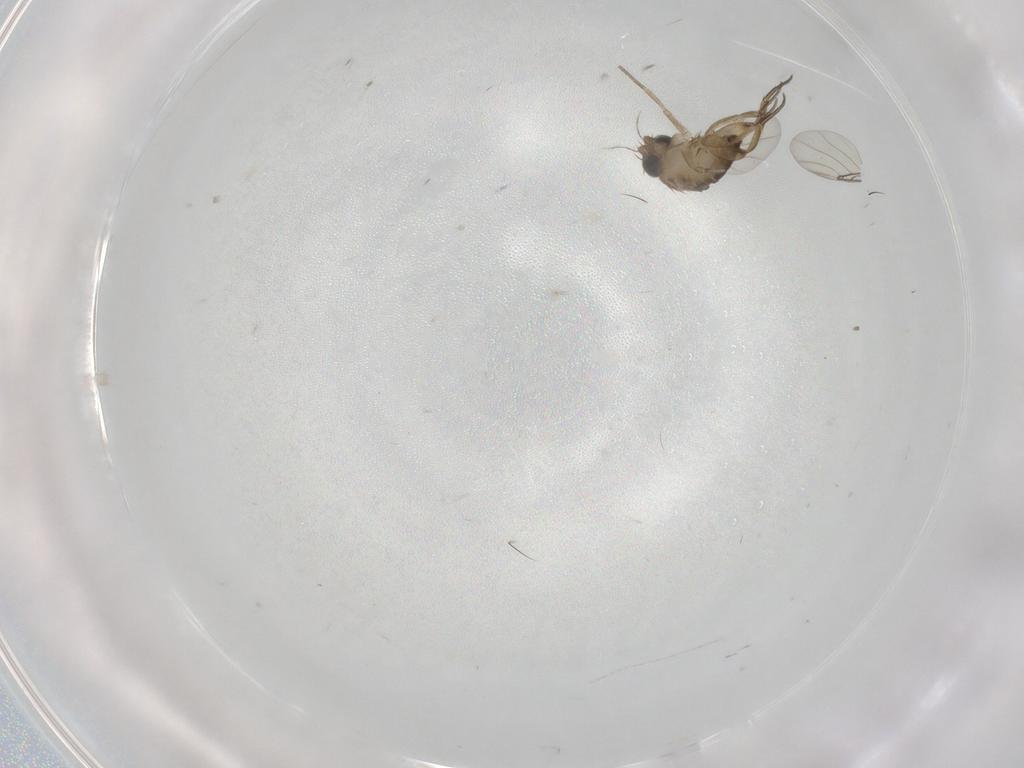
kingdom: Animalia
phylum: Arthropoda
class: Insecta
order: Diptera
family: Phoridae
